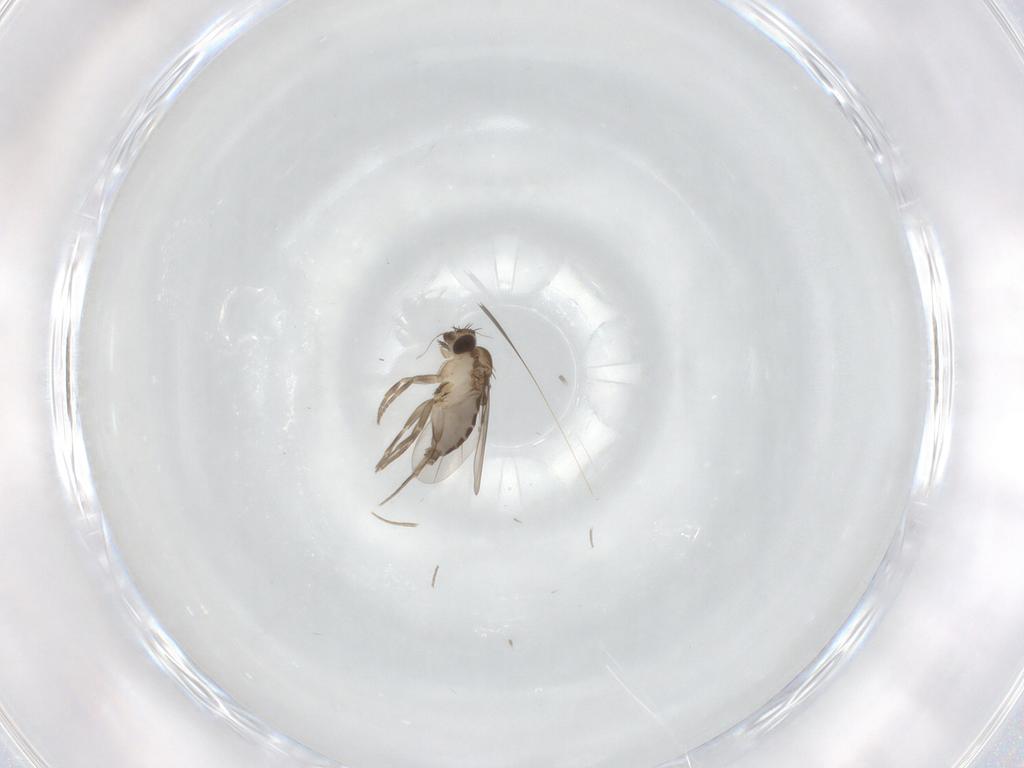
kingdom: Animalia
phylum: Arthropoda
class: Insecta
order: Diptera
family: Phoridae
